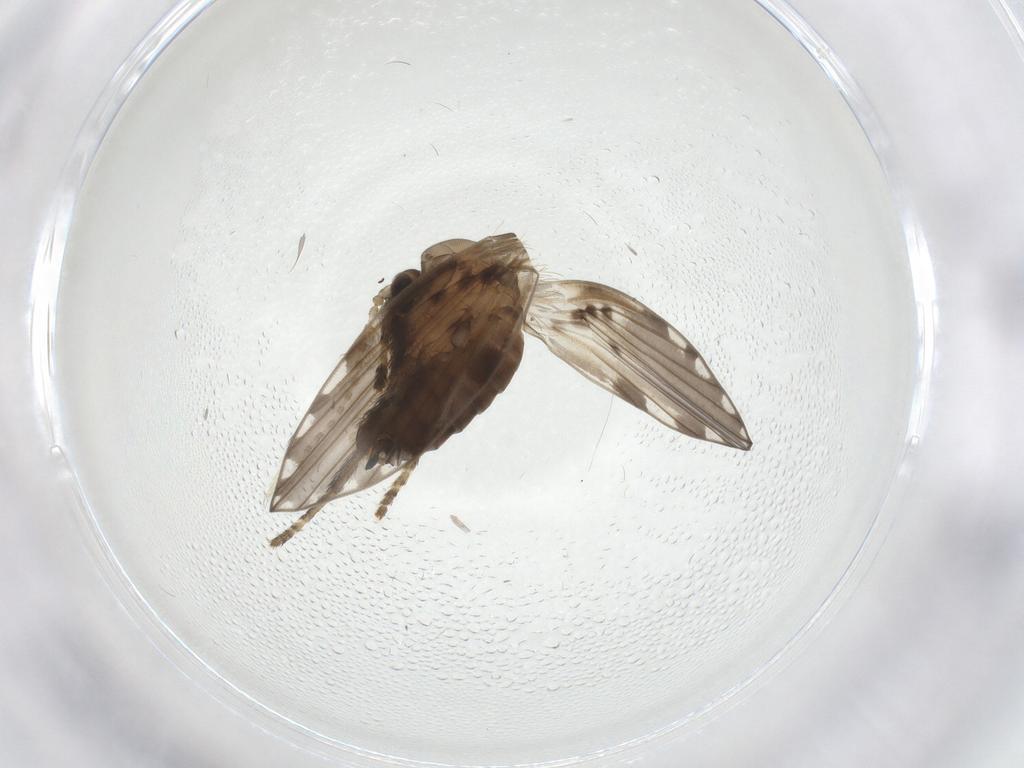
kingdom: Animalia
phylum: Arthropoda
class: Insecta
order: Diptera
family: Psychodidae
